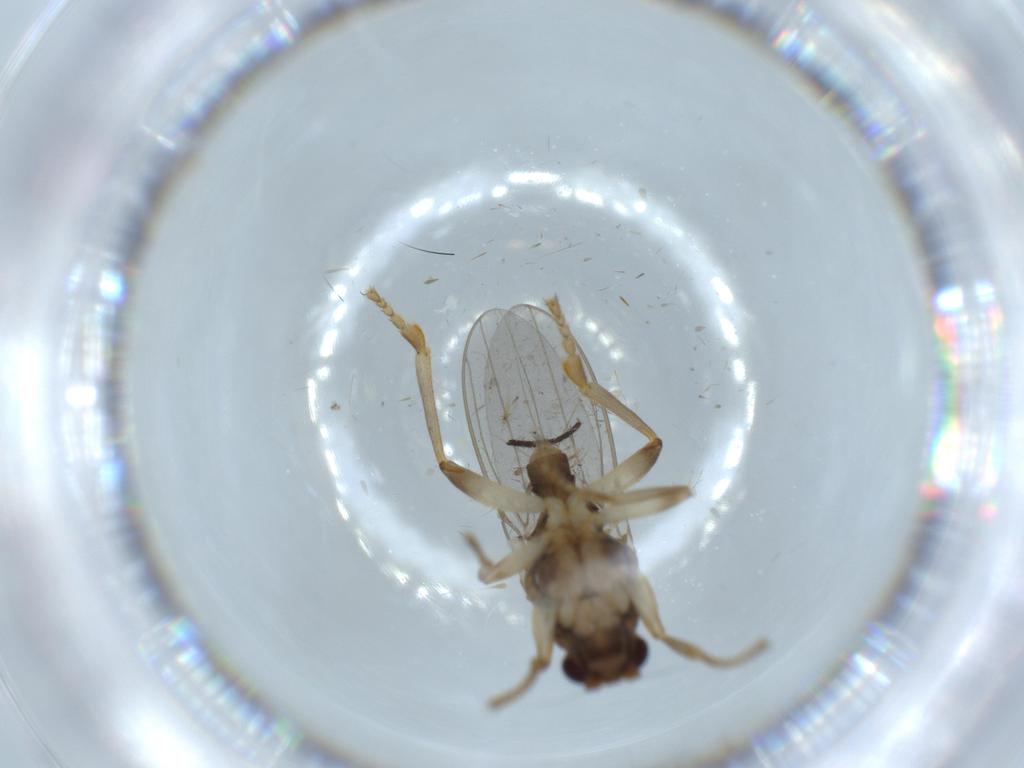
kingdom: Animalia
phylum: Arthropoda
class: Insecta
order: Diptera
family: Sphaeroceridae
